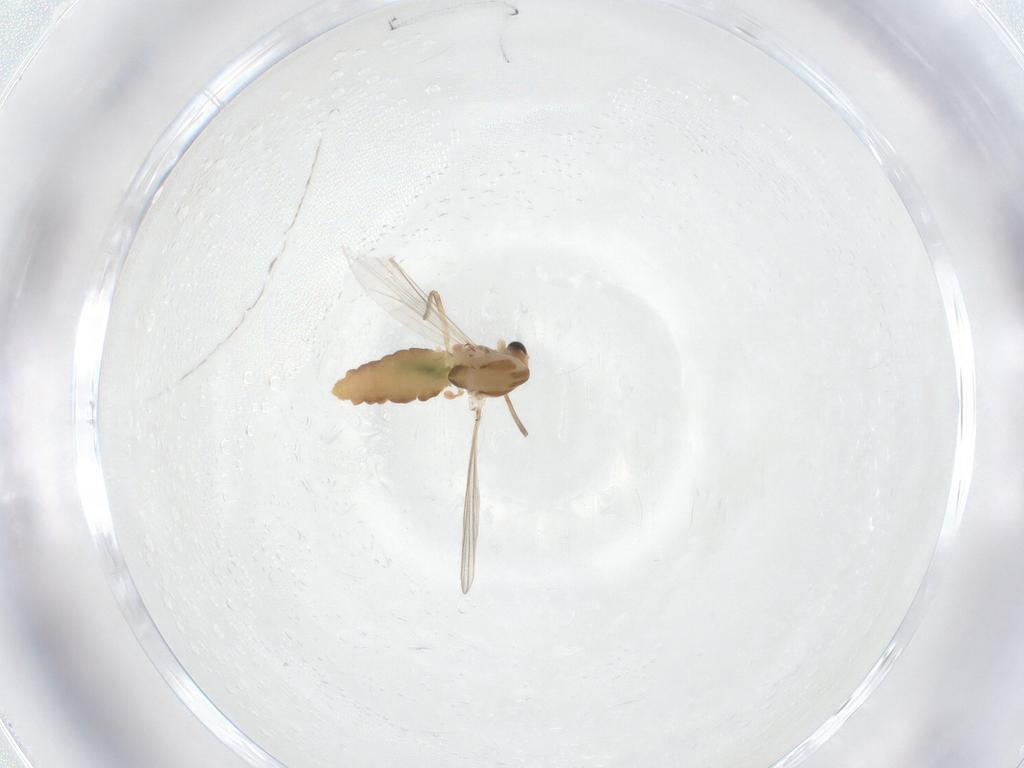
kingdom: Animalia
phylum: Arthropoda
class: Insecta
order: Diptera
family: Chironomidae
